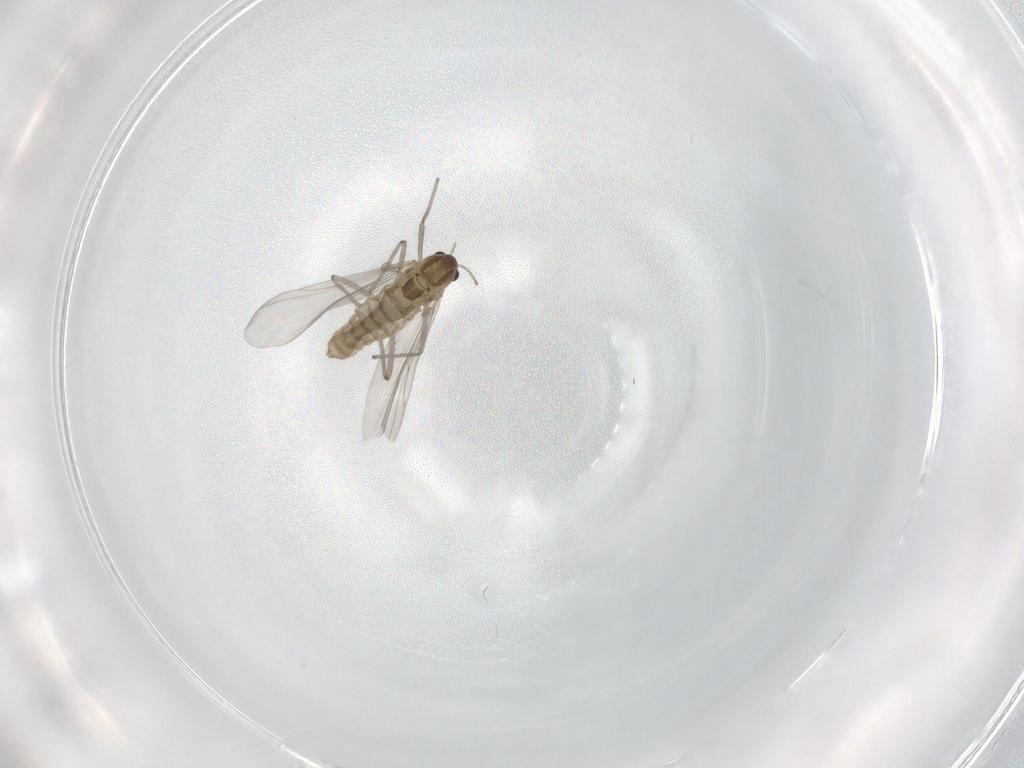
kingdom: Animalia
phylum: Arthropoda
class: Insecta
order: Diptera
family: Chironomidae
